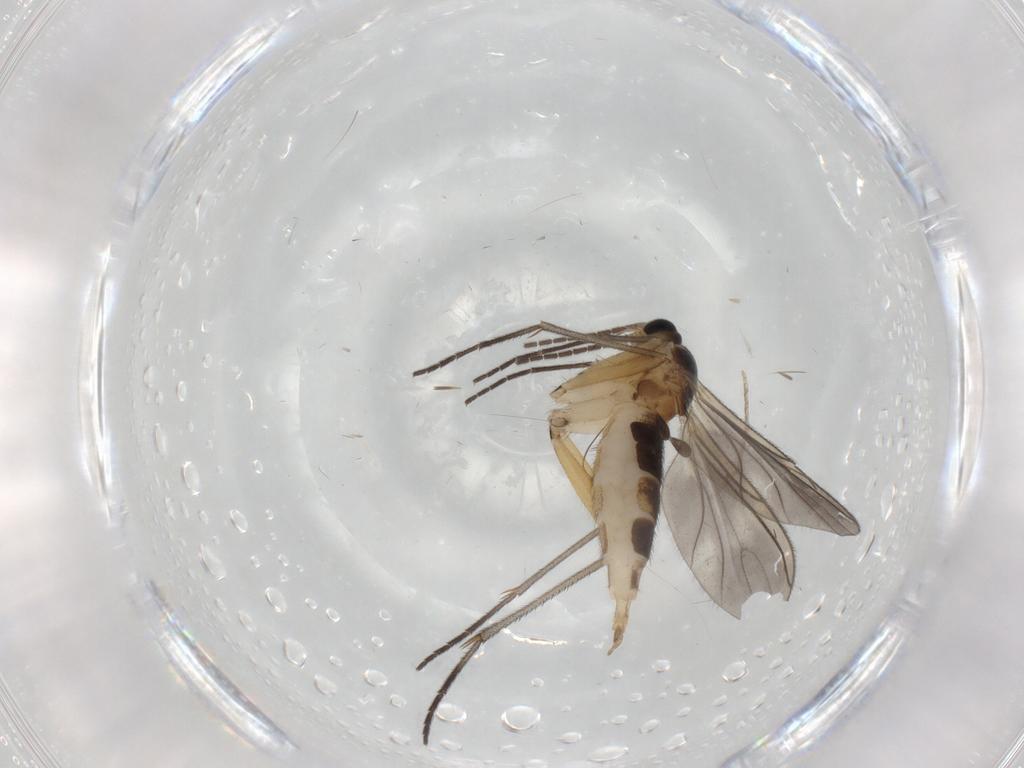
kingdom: Animalia
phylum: Arthropoda
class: Insecta
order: Diptera
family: Sciaridae
